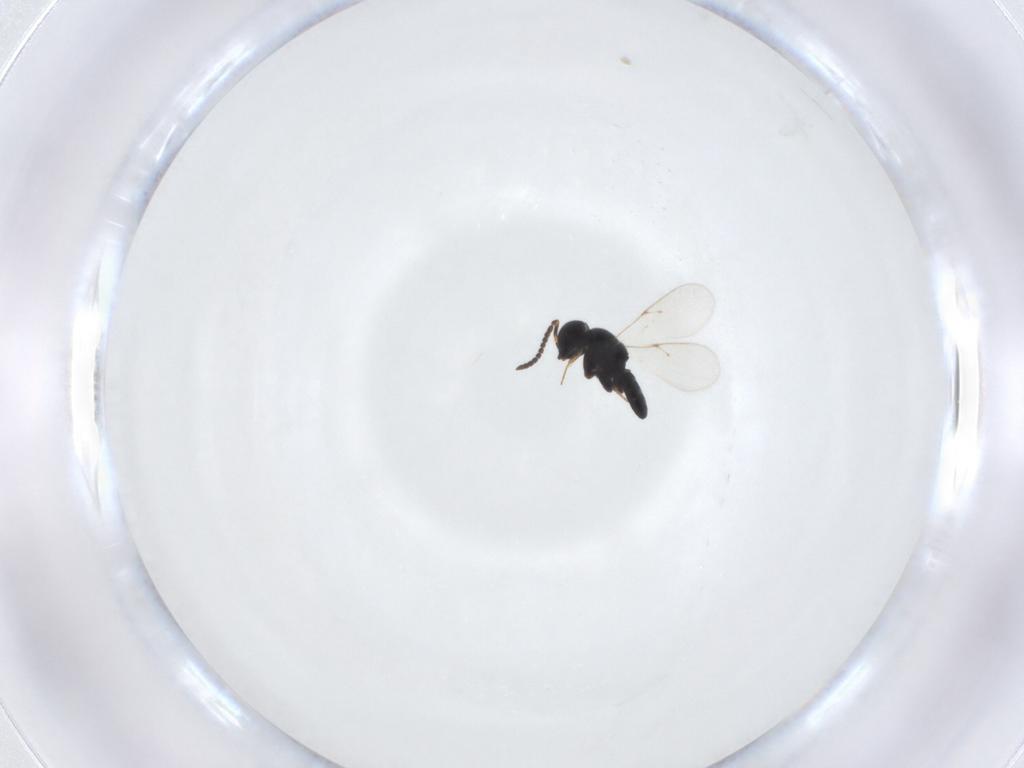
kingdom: Animalia
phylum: Arthropoda
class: Insecta
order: Hymenoptera
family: Scelionidae
